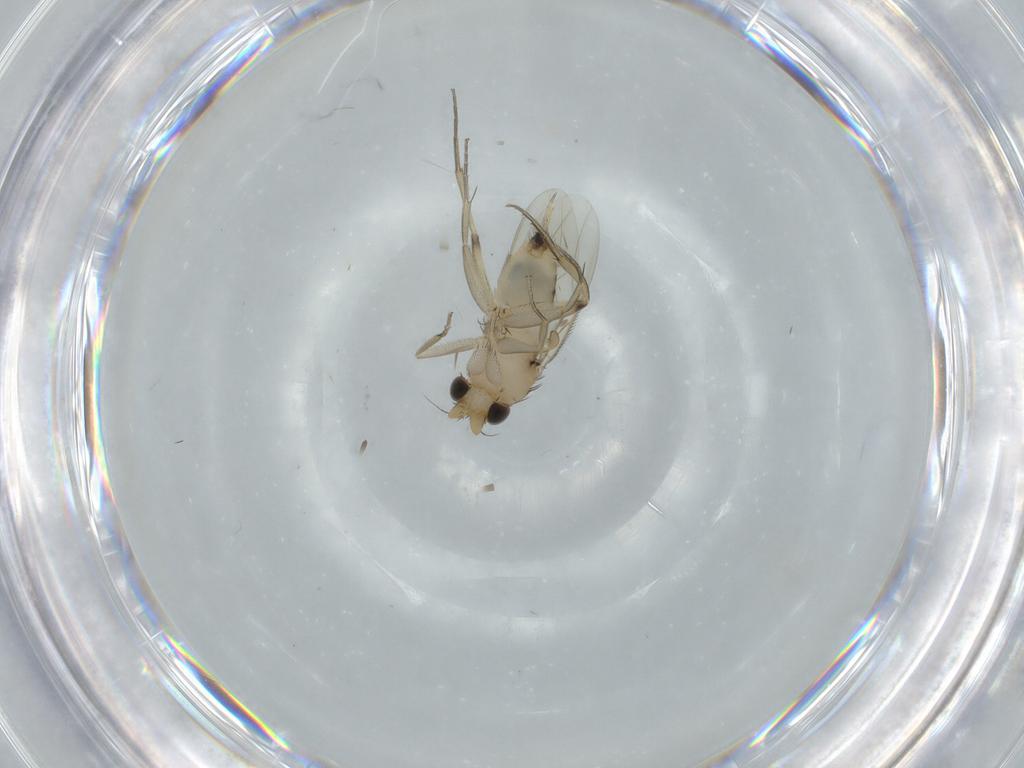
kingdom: Animalia
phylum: Arthropoda
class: Insecta
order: Diptera
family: Phoridae
